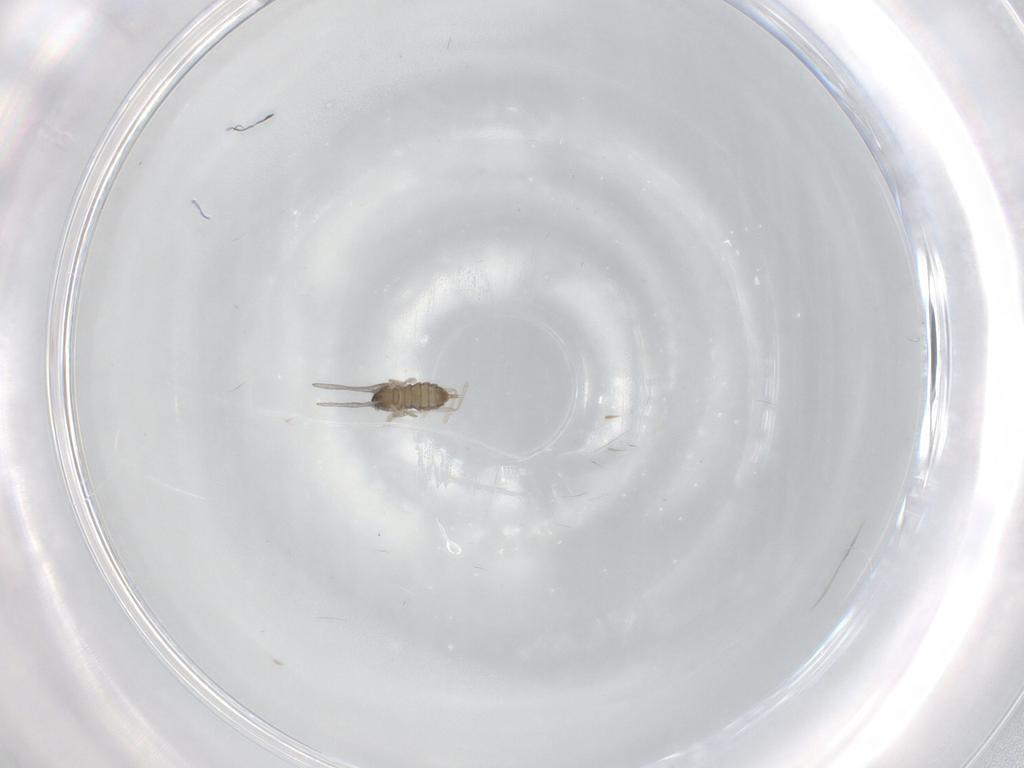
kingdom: Animalia
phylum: Arthropoda
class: Insecta
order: Diptera
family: Cecidomyiidae
